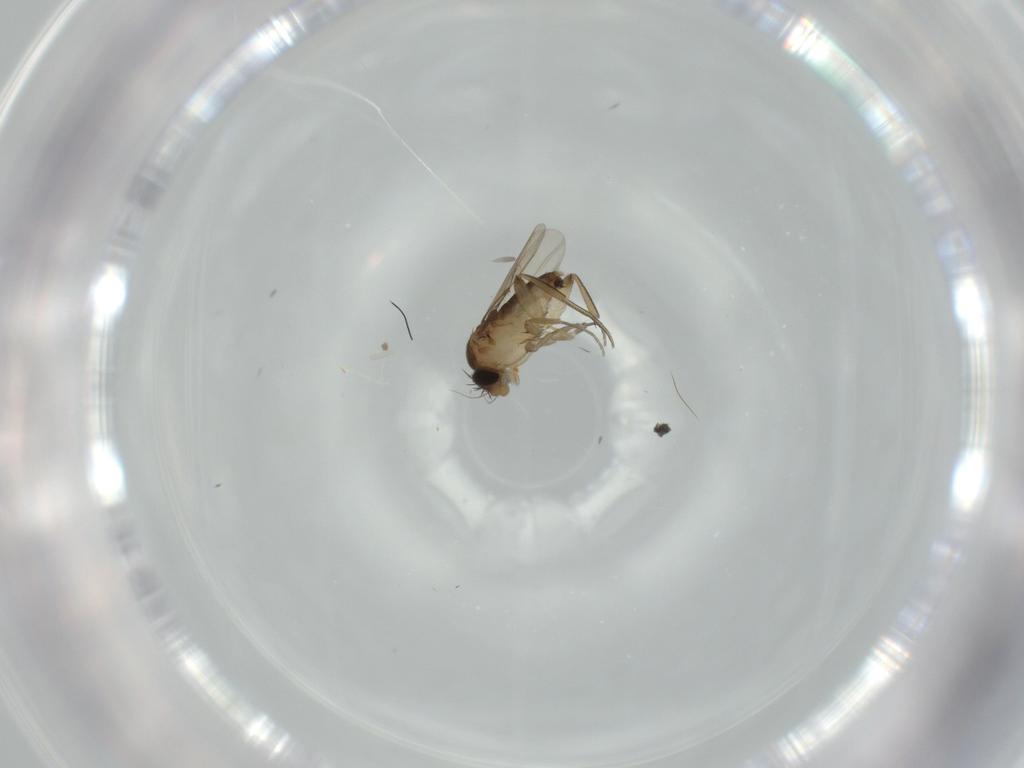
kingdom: Animalia
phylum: Arthropoda
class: Insecta
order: Diptera
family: Phoridae
